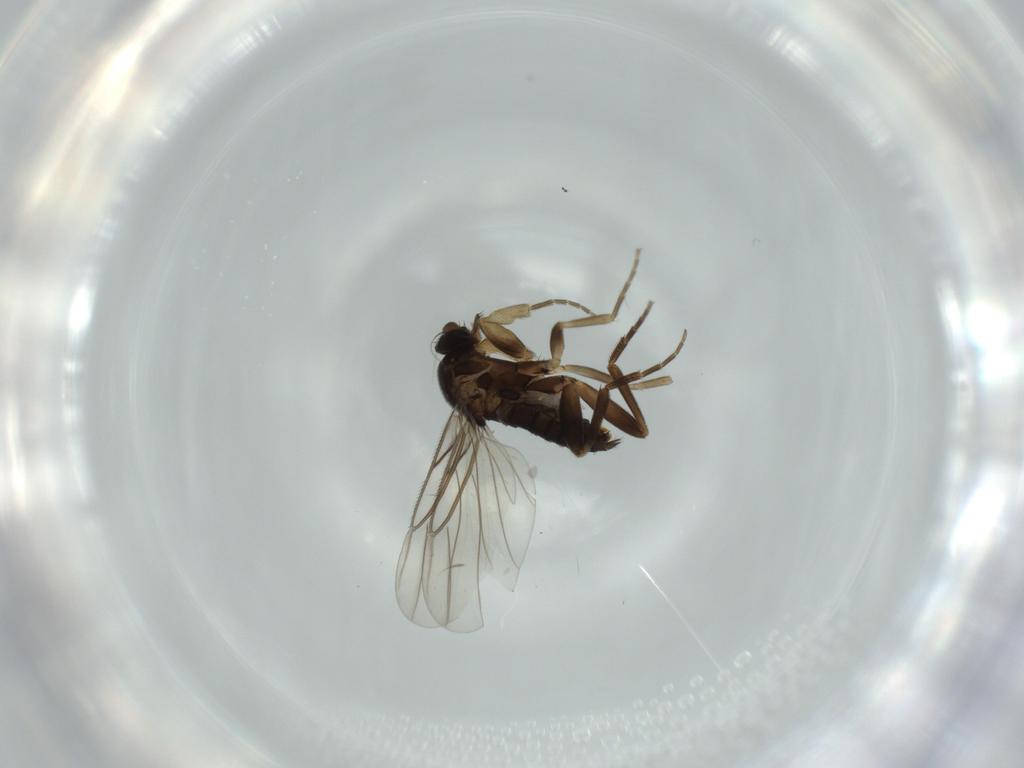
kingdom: Animalia
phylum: Arthropoda
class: Insecta
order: Diptera
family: Phoridae
